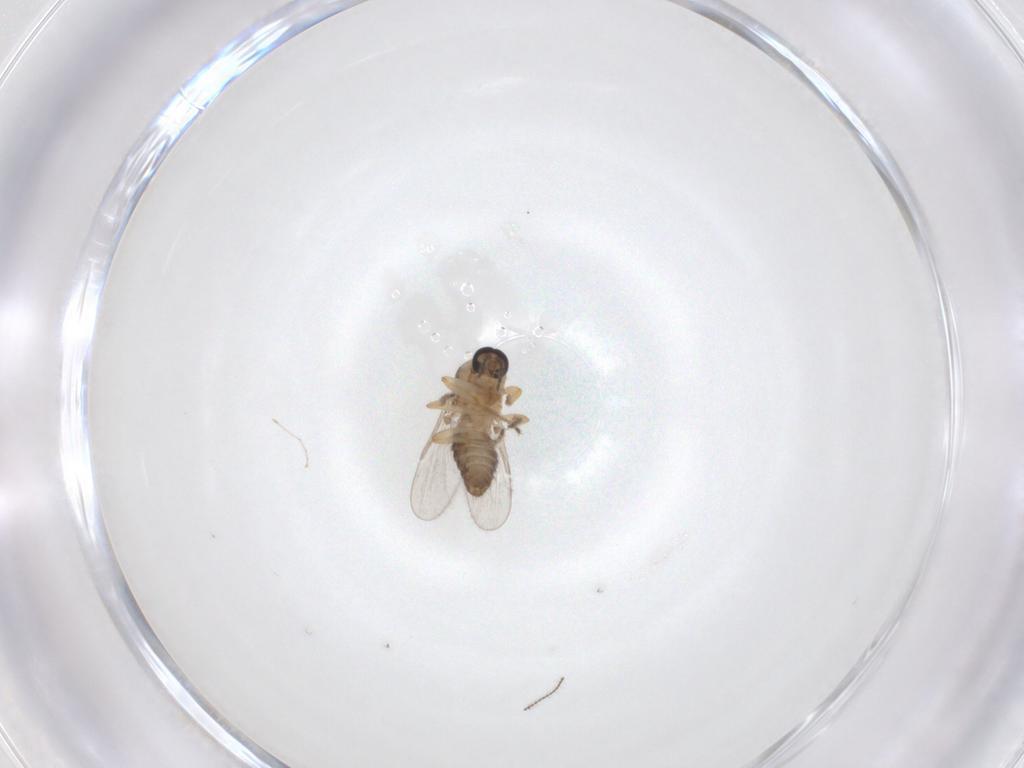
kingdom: Animalia
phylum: Arthropoda
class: Insecta
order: Diptera
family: Ceratopogonidae
